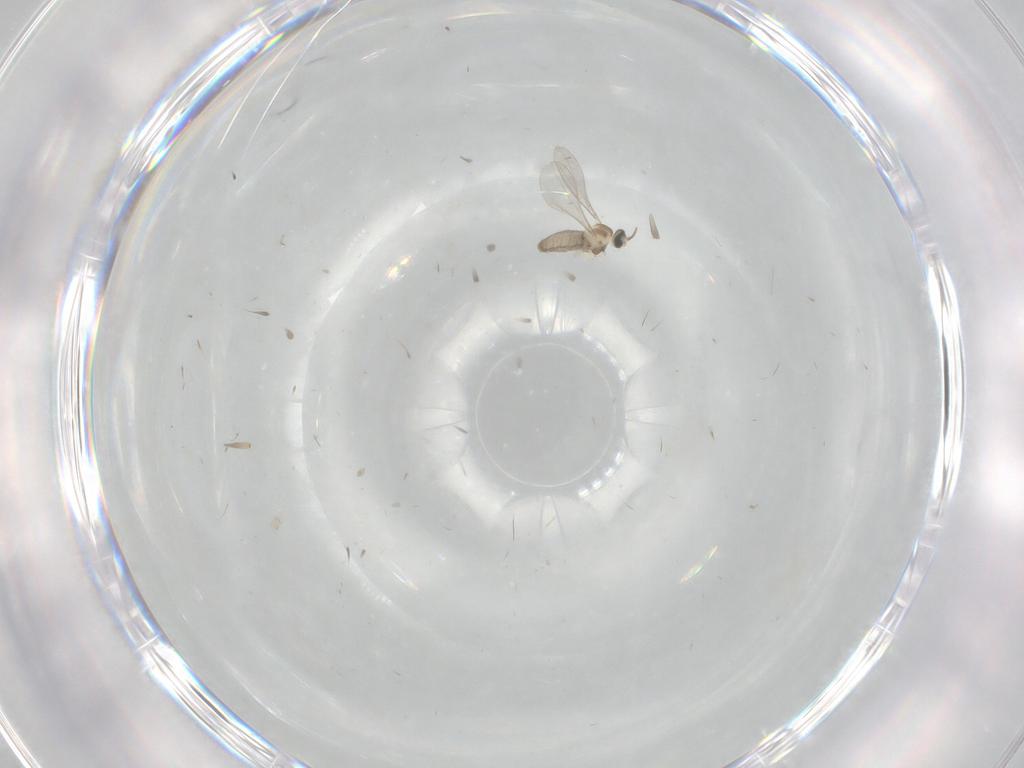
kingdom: Animalia
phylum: Arthropoda
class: Insecta
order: Diptera
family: Cecidomyiidae
